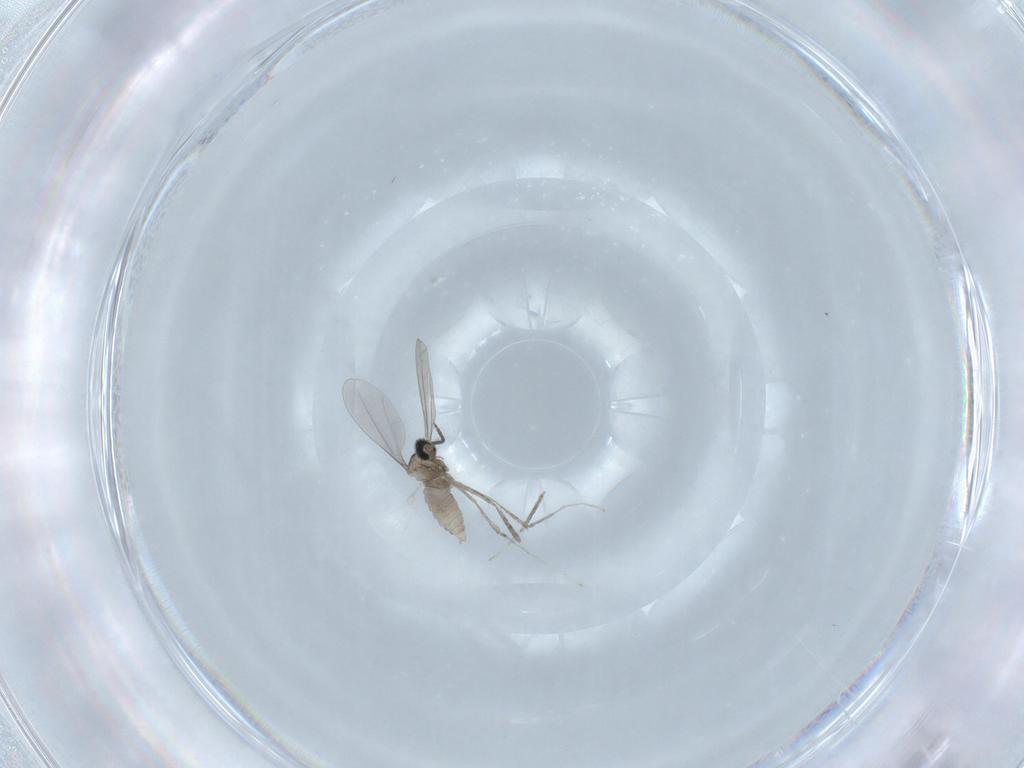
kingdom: Animalia
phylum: Arthropoda
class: Insecta
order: Diptera
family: Cecidomyiidae
